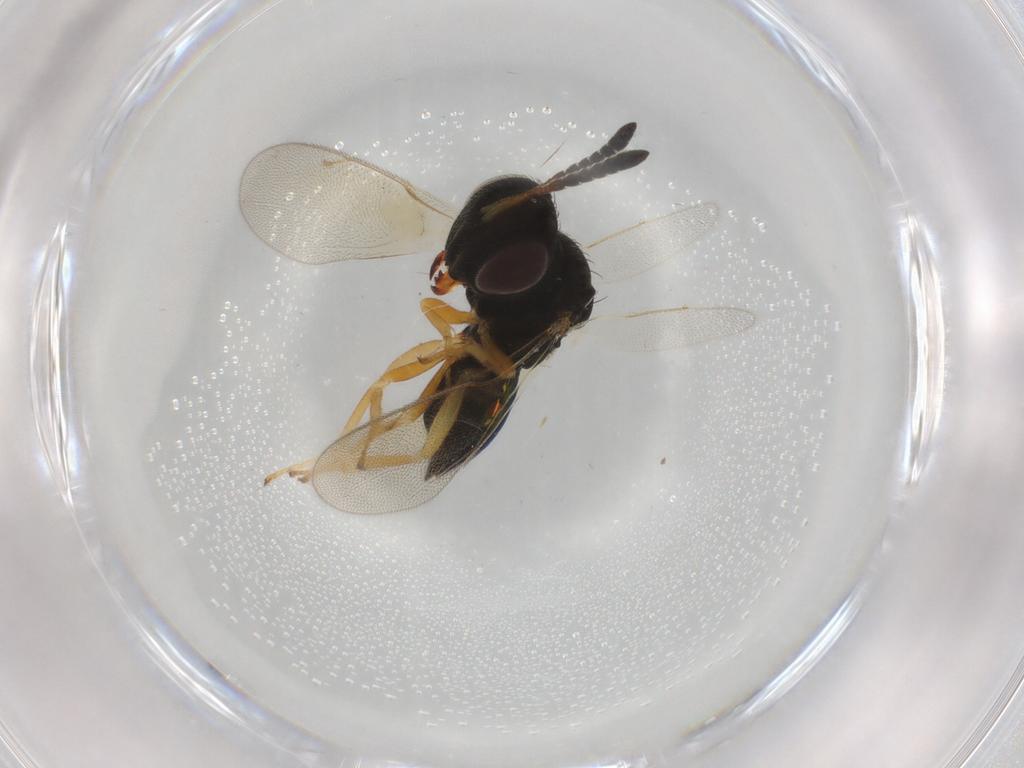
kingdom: Animalia
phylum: Arthropoda
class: Insecta
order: Hymenoptera
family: Pteromalidae
